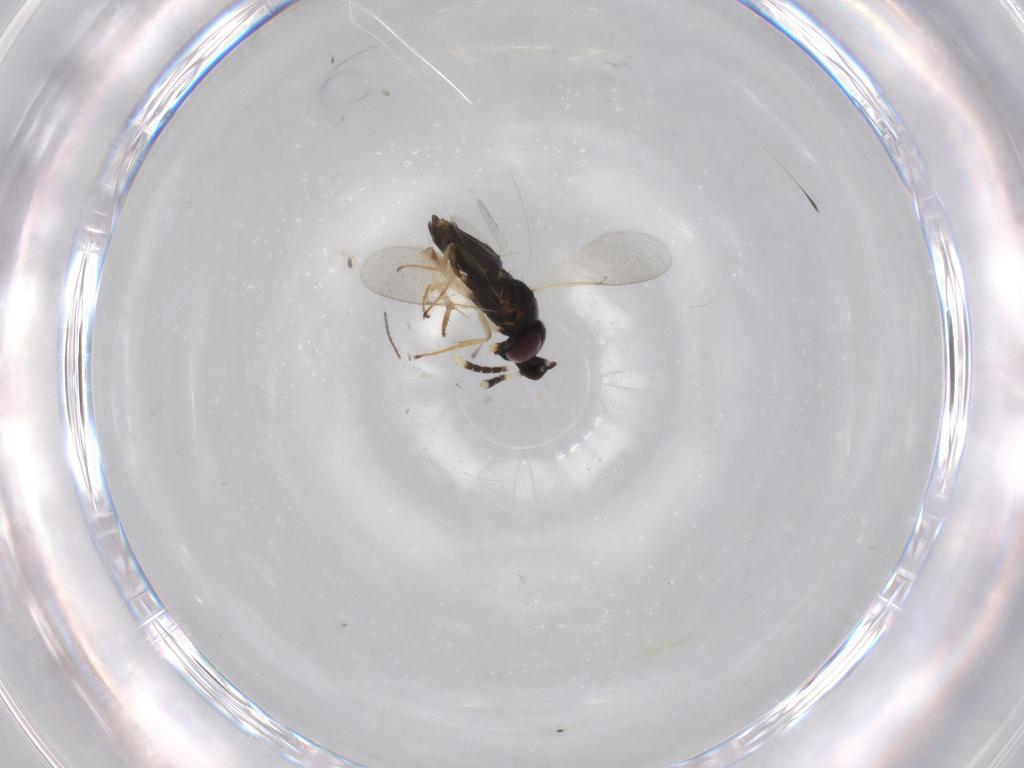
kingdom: Animalia
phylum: Arthropoda
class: Insecta
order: Hymenoptera
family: Encyrtidae
